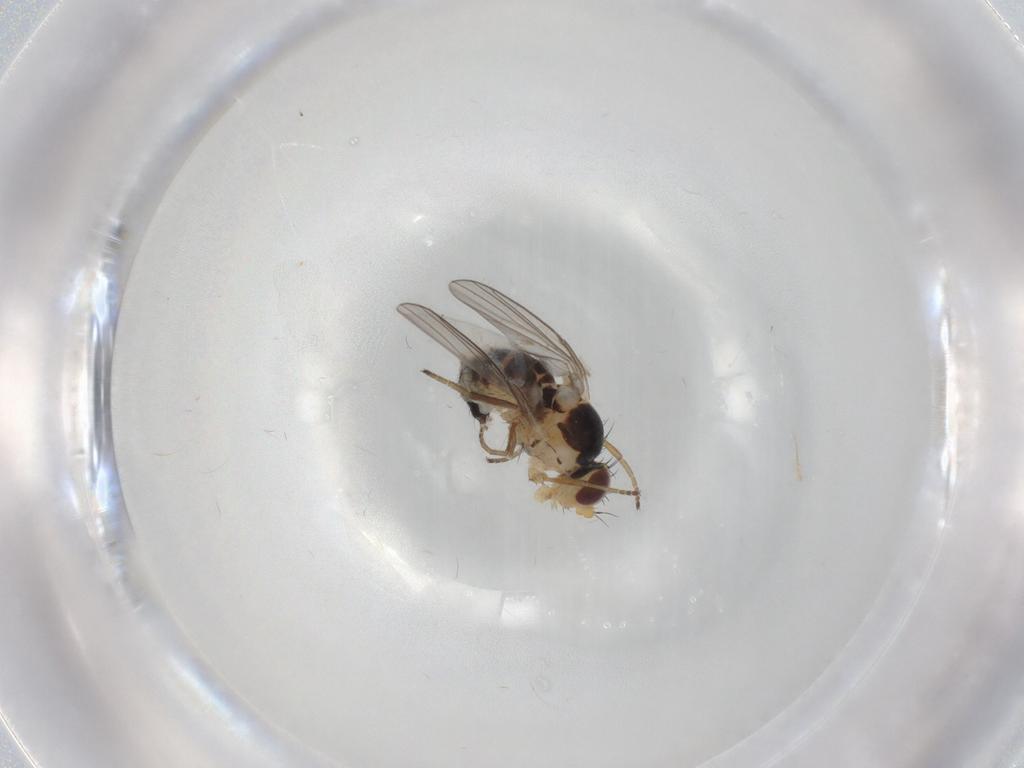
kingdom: Animalia
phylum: Arthropoda
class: Insecta
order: Diptera
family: Agromyzidae
